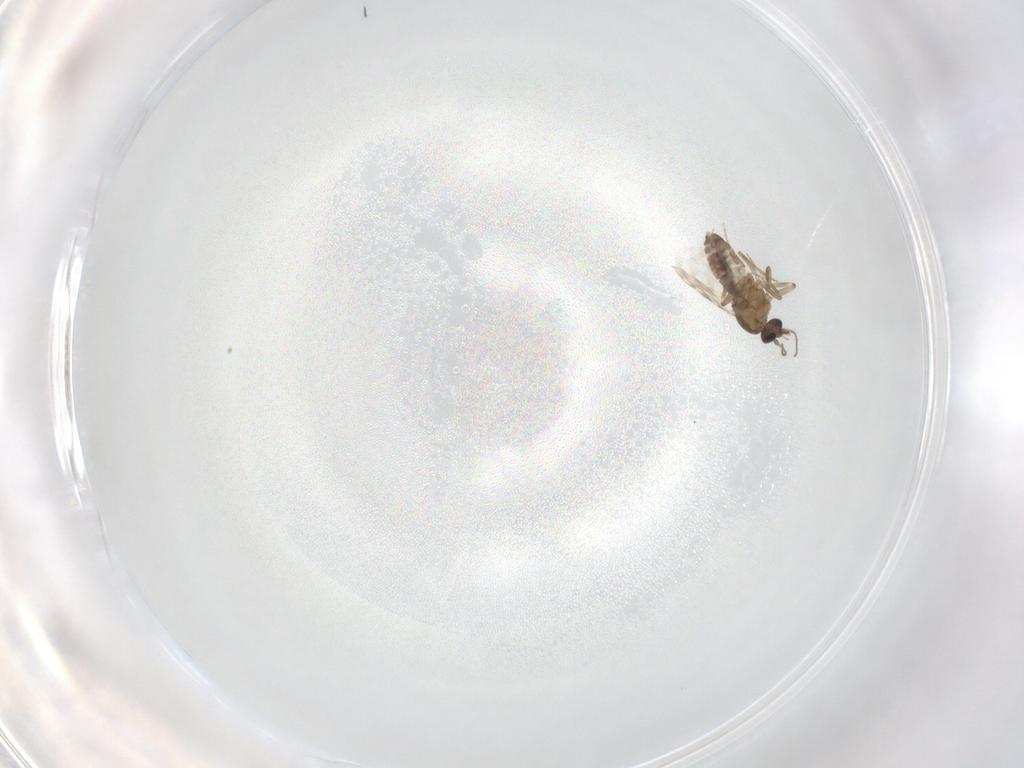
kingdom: Animalia
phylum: Arthropoda
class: Insecta
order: Diptera
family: Ceratopogonidae
